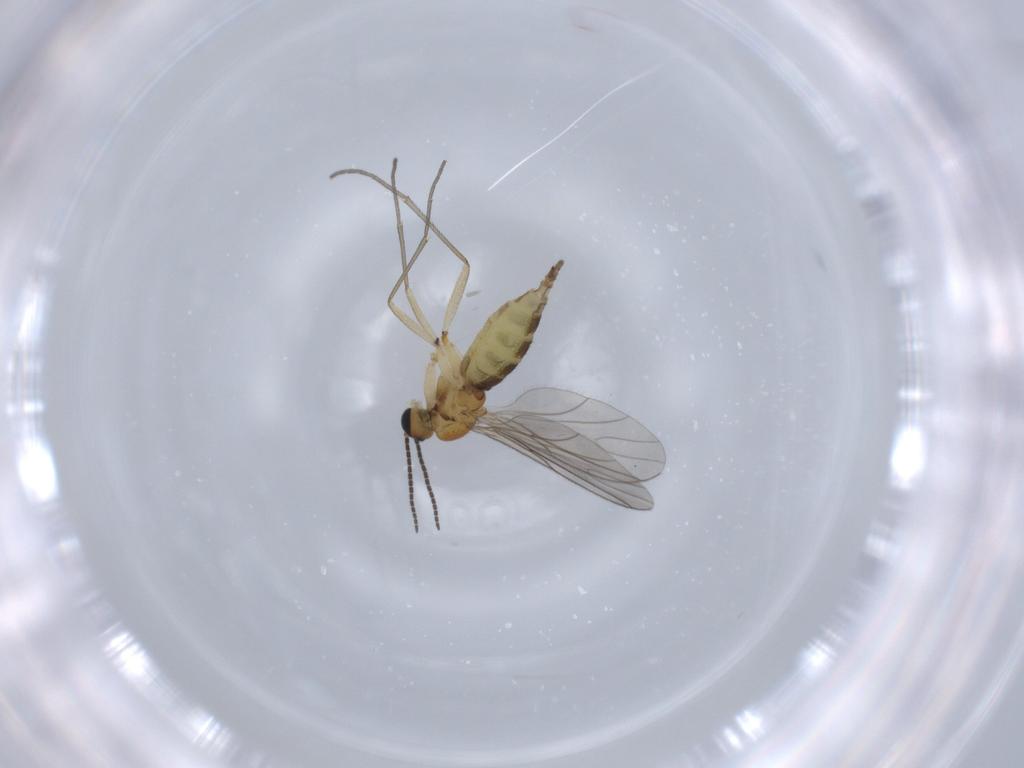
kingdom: Animalia
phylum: Arthropoda
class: Insecta
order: Diptera
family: Sciaridae
